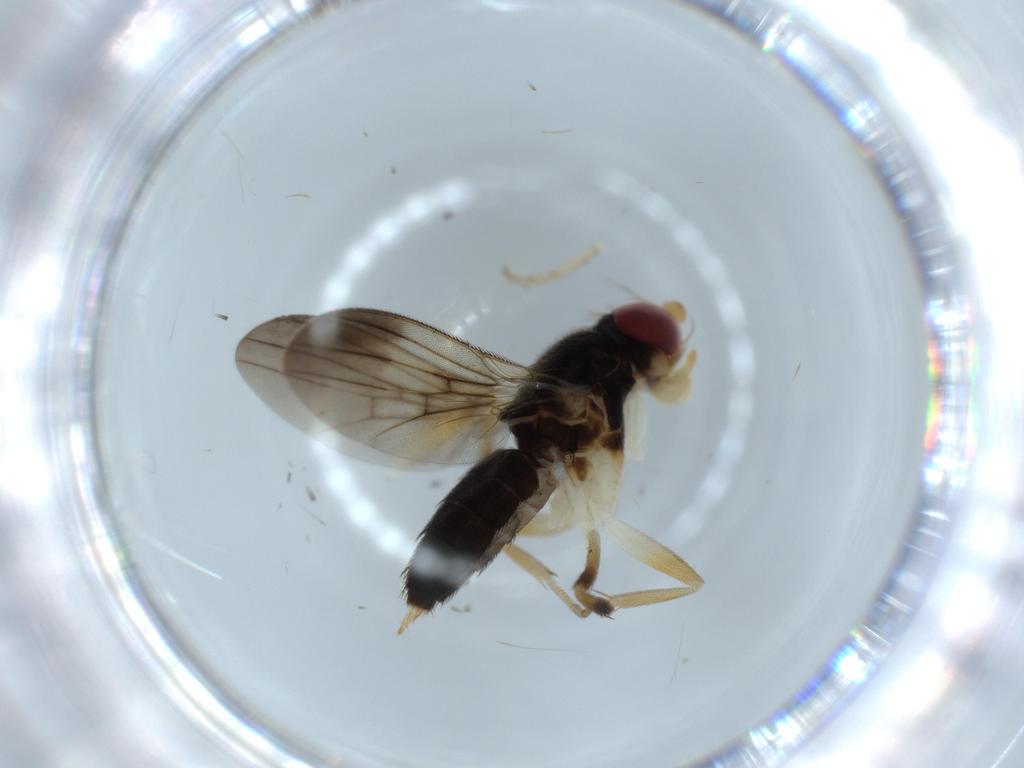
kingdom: Animalia
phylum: Arthropoda
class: Insecta
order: Diptera
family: Clusiidae
